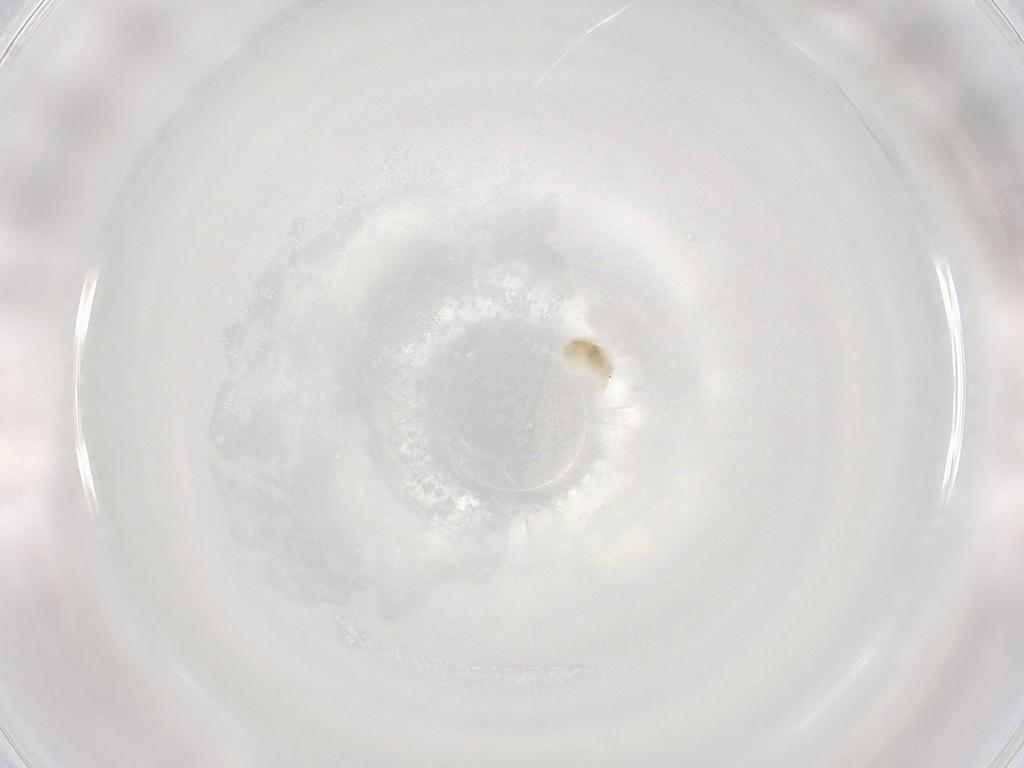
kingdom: Animalia
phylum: Arthropoda
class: Arachnida
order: Trombidiformes
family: Eupodidae
